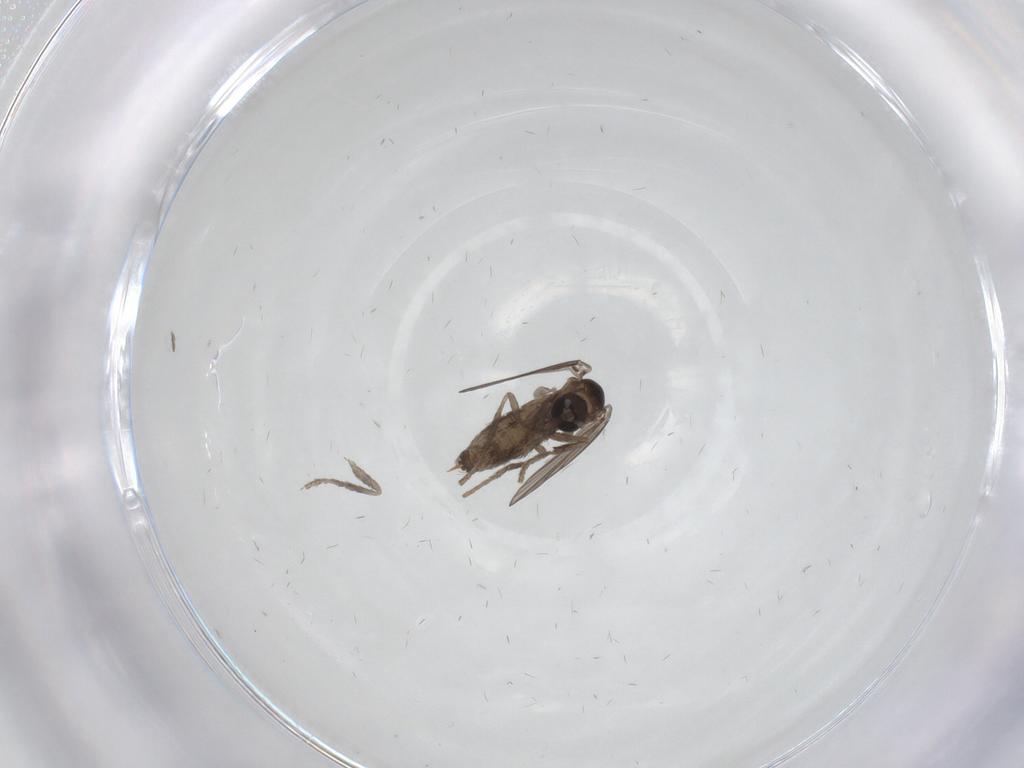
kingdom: Animalia
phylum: Arthropoda
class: Insecta
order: Diptera
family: Psychodidae
